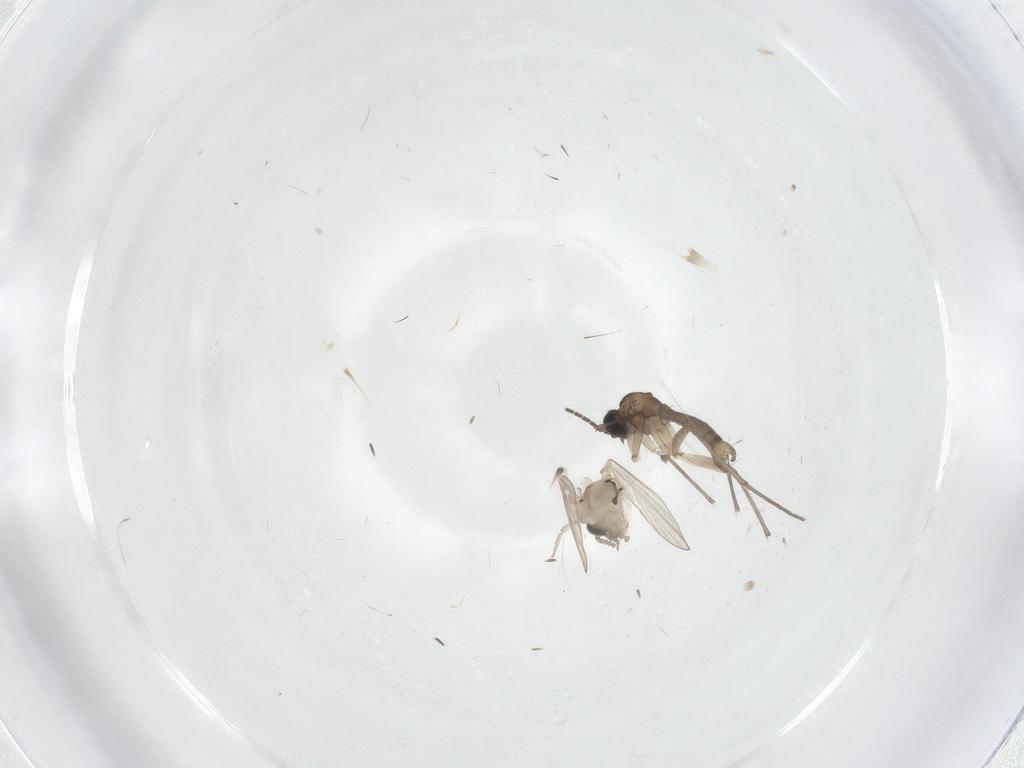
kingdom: Animalia
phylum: Arthropoda
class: Insecta
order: Diptera
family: Psychodidae
